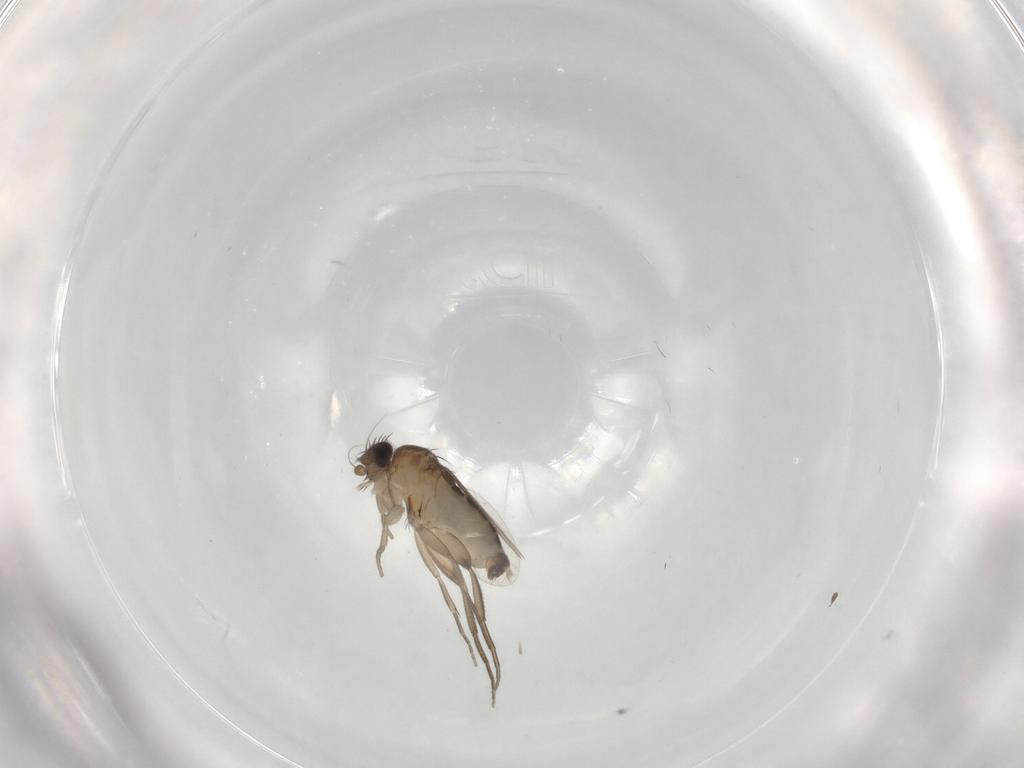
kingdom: Animalia
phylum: Arthropoda
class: Insecta
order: Diptera
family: Phoridae
